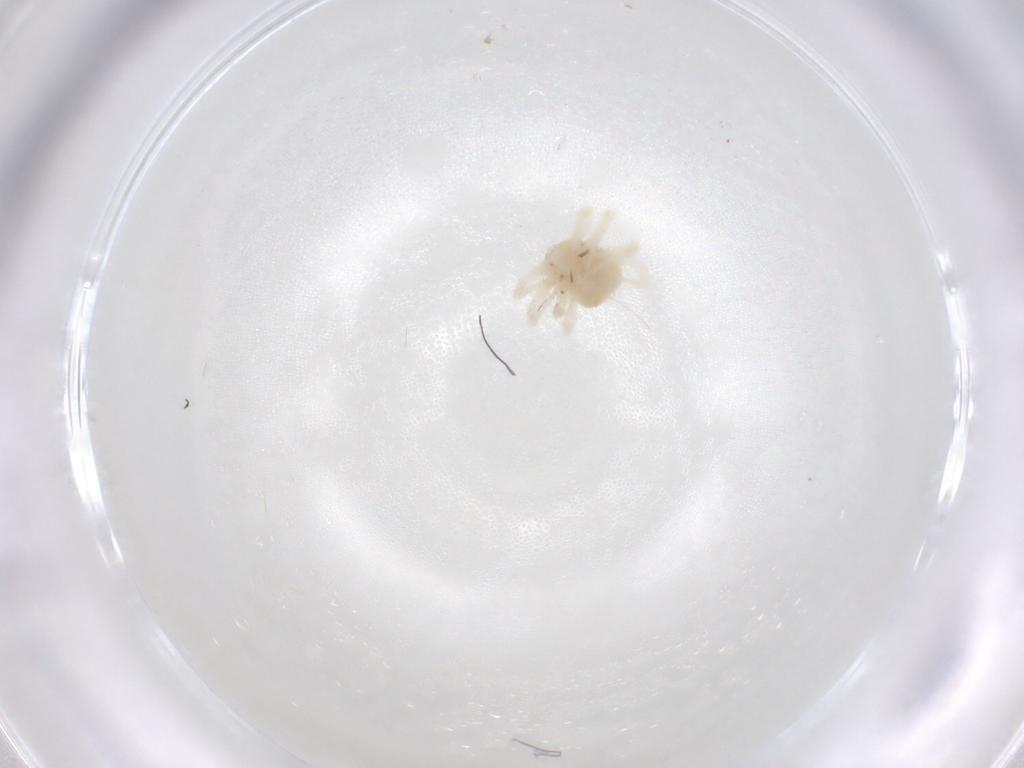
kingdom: Animalia
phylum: Arthropoda
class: Arachnida
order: Trombidiformes
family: Anystidae
